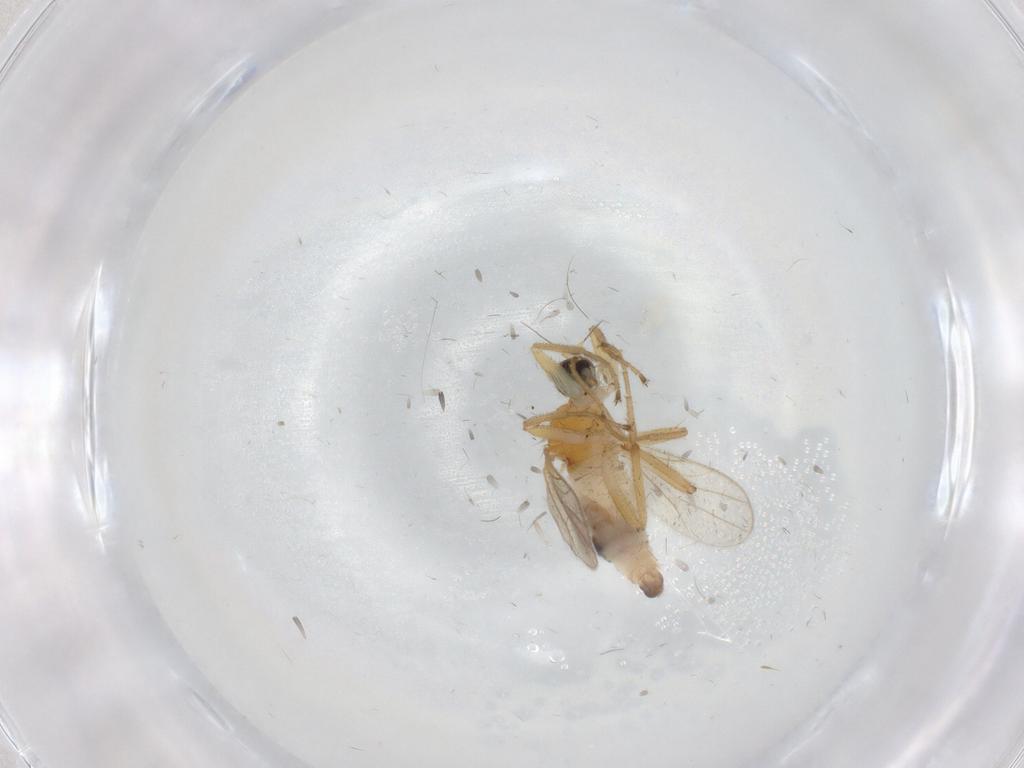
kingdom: Animalia
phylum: Arthropoda
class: Insecta
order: Diptera
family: Hybotidae
